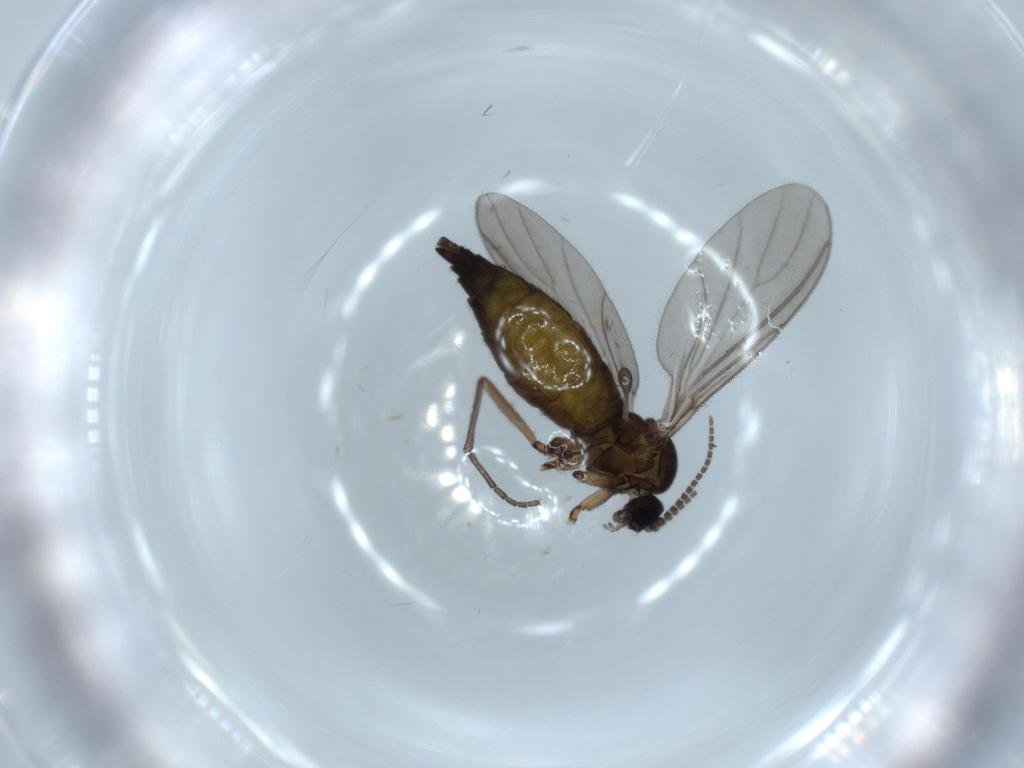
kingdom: Animalia
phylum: Arthropoda
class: Insecta
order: Diptera
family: Sciaridae
